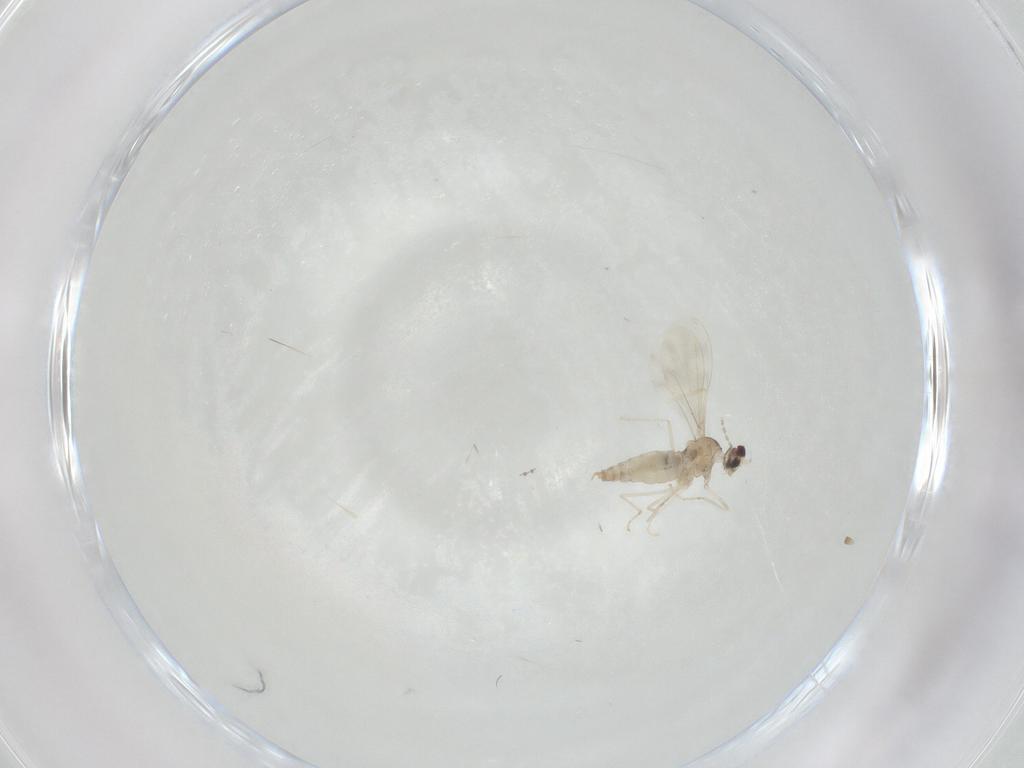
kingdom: Animalia
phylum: Arthropoda
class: Insecta
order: Diptera
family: Cecidomyiidae
